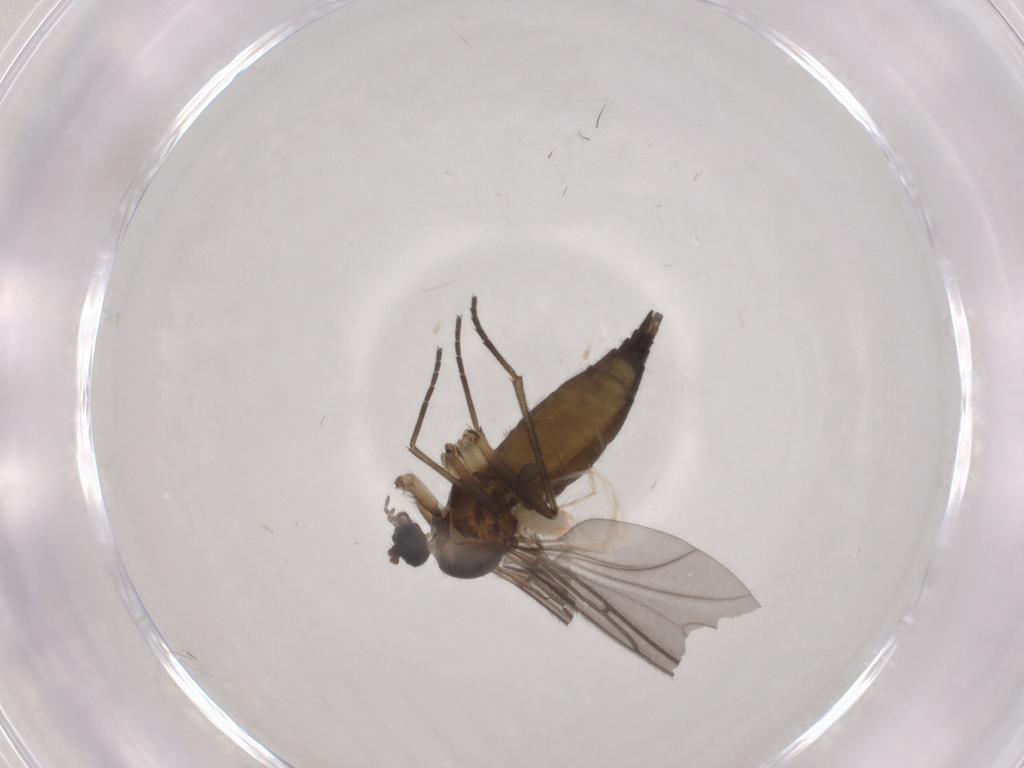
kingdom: Animalia
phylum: Arthropoda
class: Insecta
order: Diptera
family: Sciaridae
